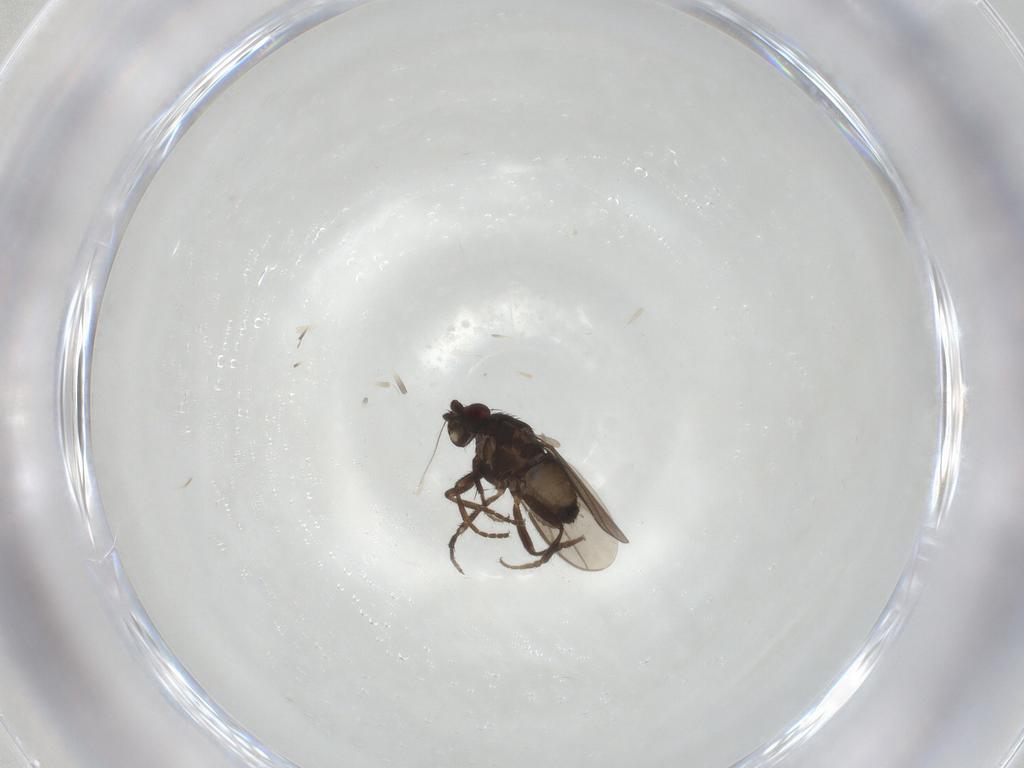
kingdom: Animalia
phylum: Arthropoda
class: Insecta
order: Diptera
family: Sphaeroceridae
